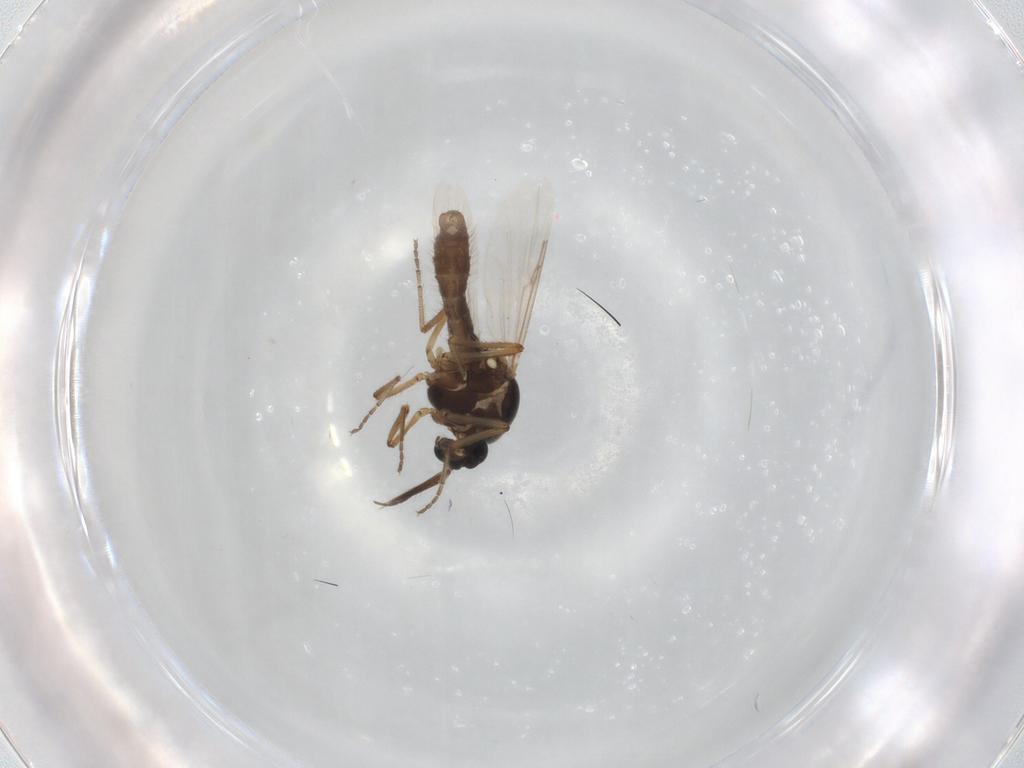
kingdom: Animalia
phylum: Arthropoda
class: Insecta
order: Diptera
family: Ceratopogonidae
